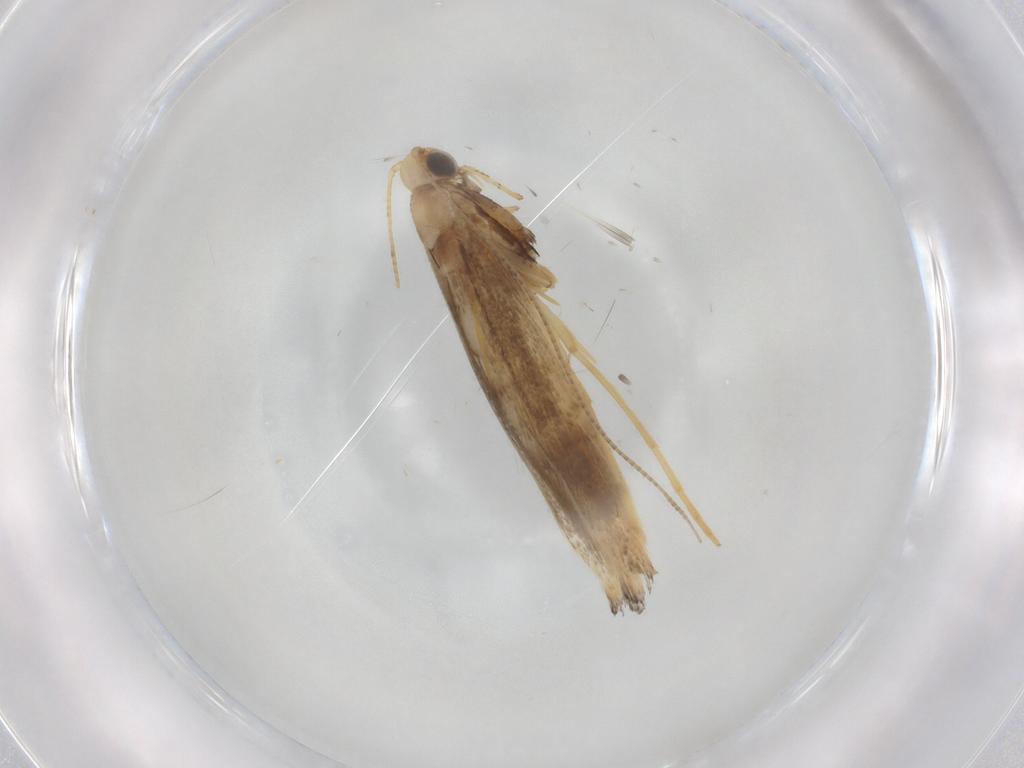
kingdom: Animalia
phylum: Arthropoda
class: Insecta
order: Lepidoptera
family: Gracillariidae
